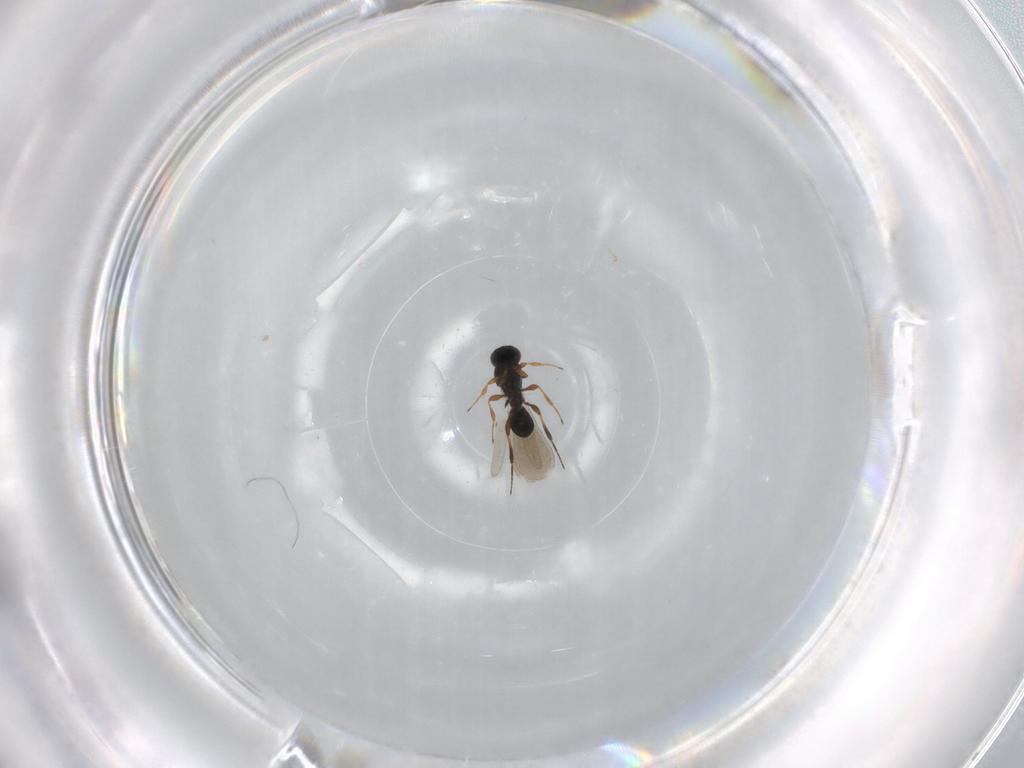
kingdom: Animalia
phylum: Arthropoda
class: Insecta
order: Hymenoptera
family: Platygastridae
